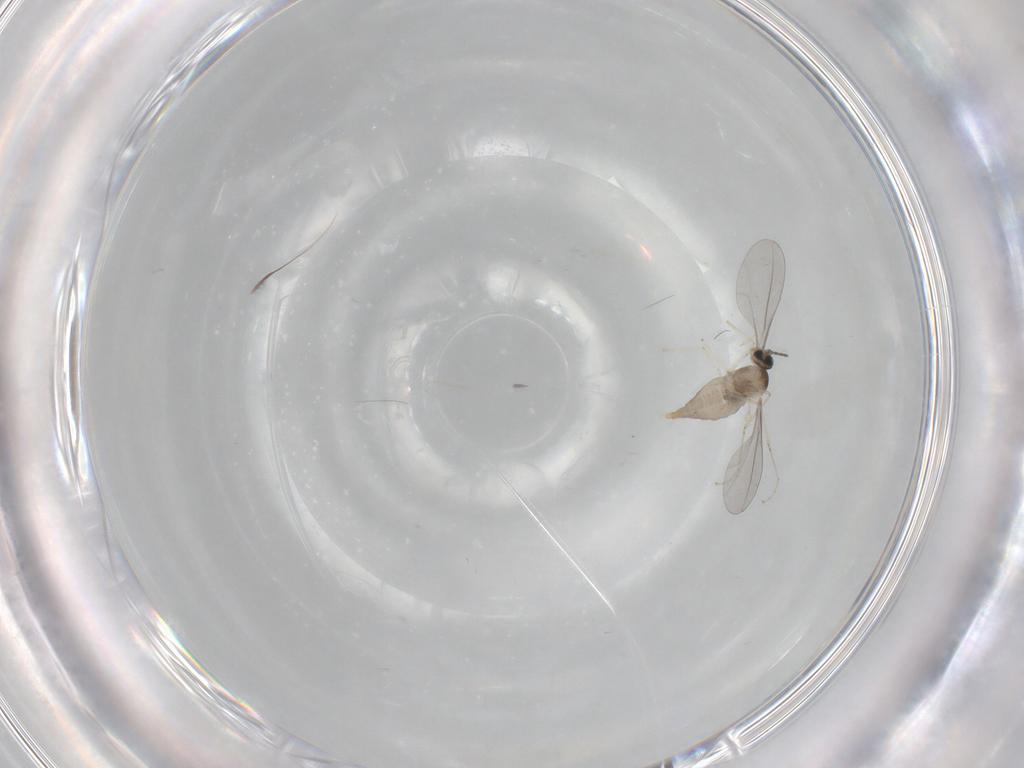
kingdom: Animalia
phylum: Arthropoda
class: Insecta
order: Diptera
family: Cecidomyiidae
